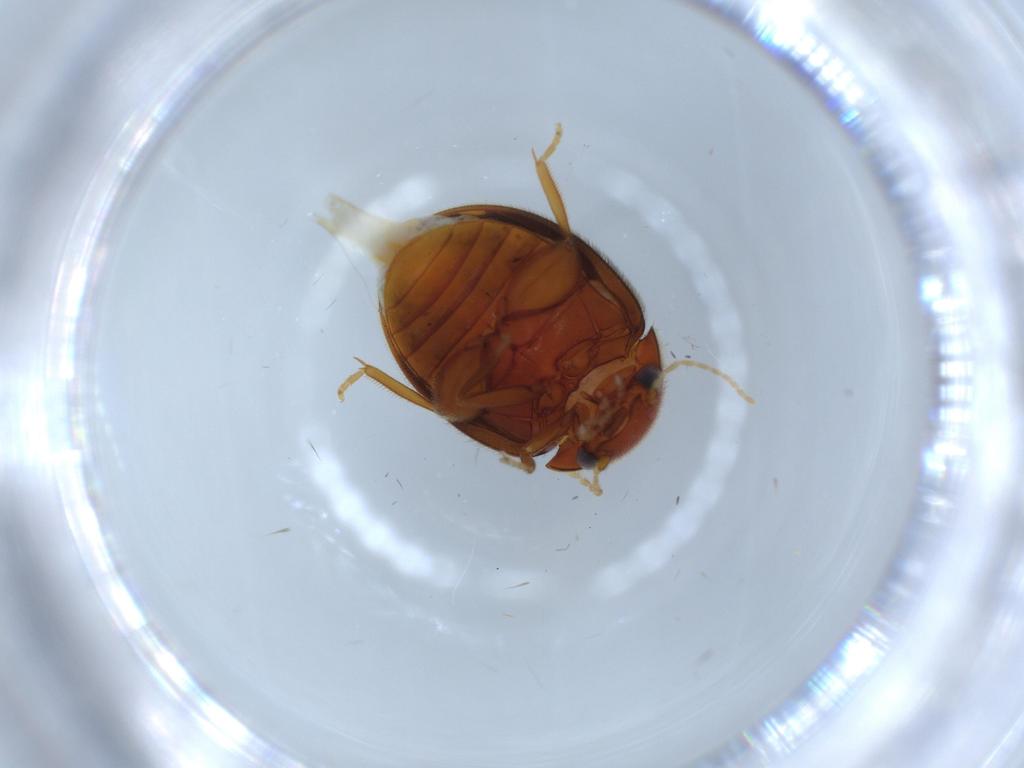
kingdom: Animalia
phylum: Arthropoda
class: Insecta
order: Coleoptera
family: Scirtidae
